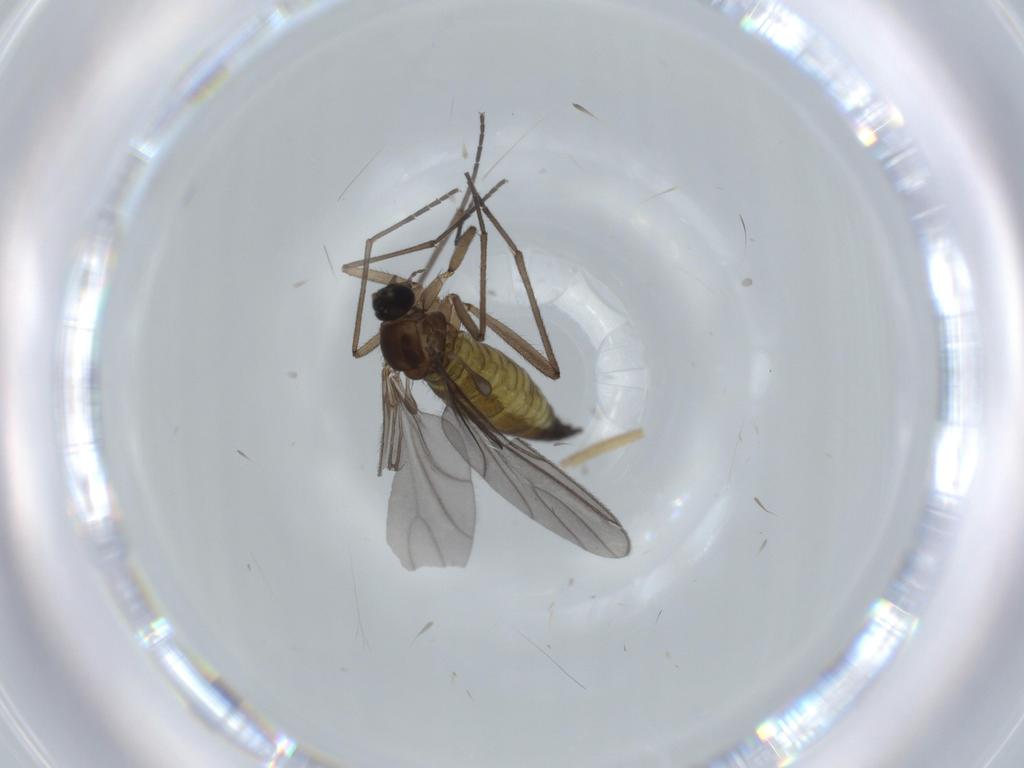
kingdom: Animalia
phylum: Arthropoda
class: Insecta
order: Diptera
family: Sciaridae
